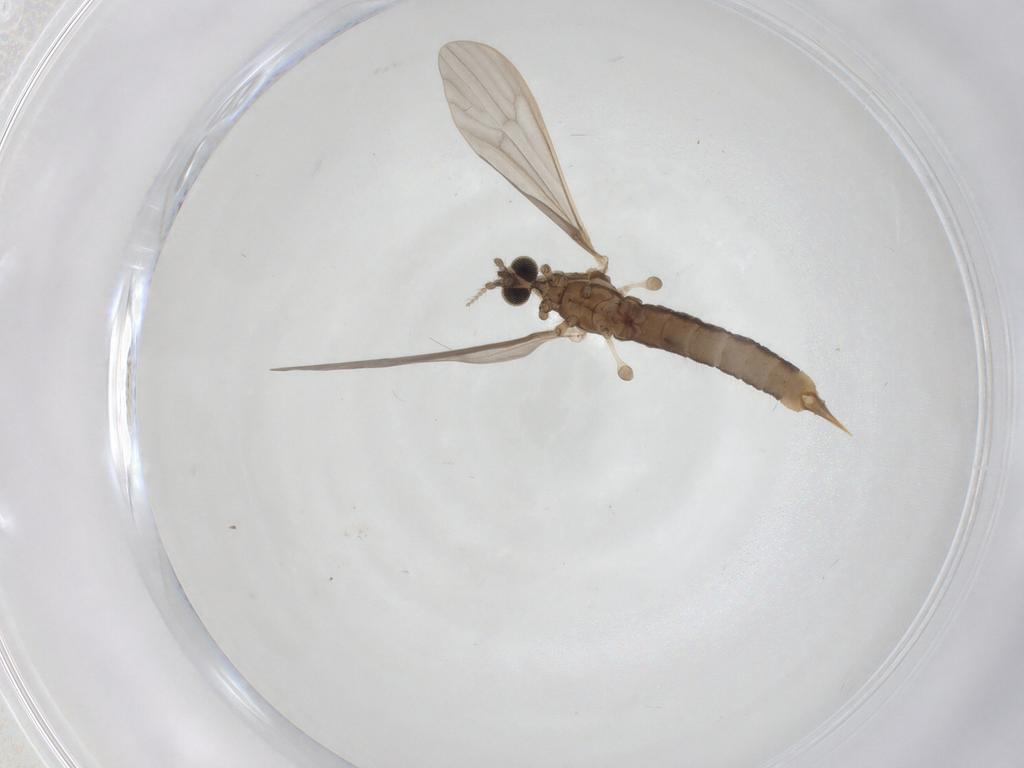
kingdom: Animalia
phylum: Arthropoda
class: Insecta
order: Diptera
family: Limoniidae
